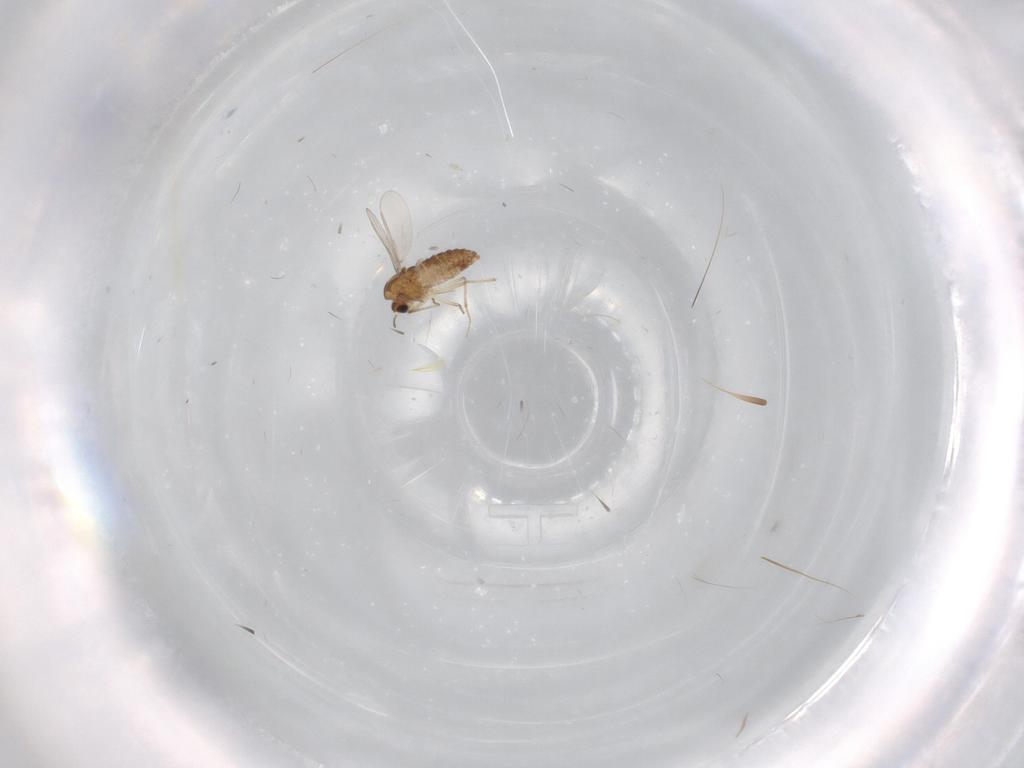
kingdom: Animalia
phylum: Arthropoda
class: Insecta
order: Diptera
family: Chironomidae
